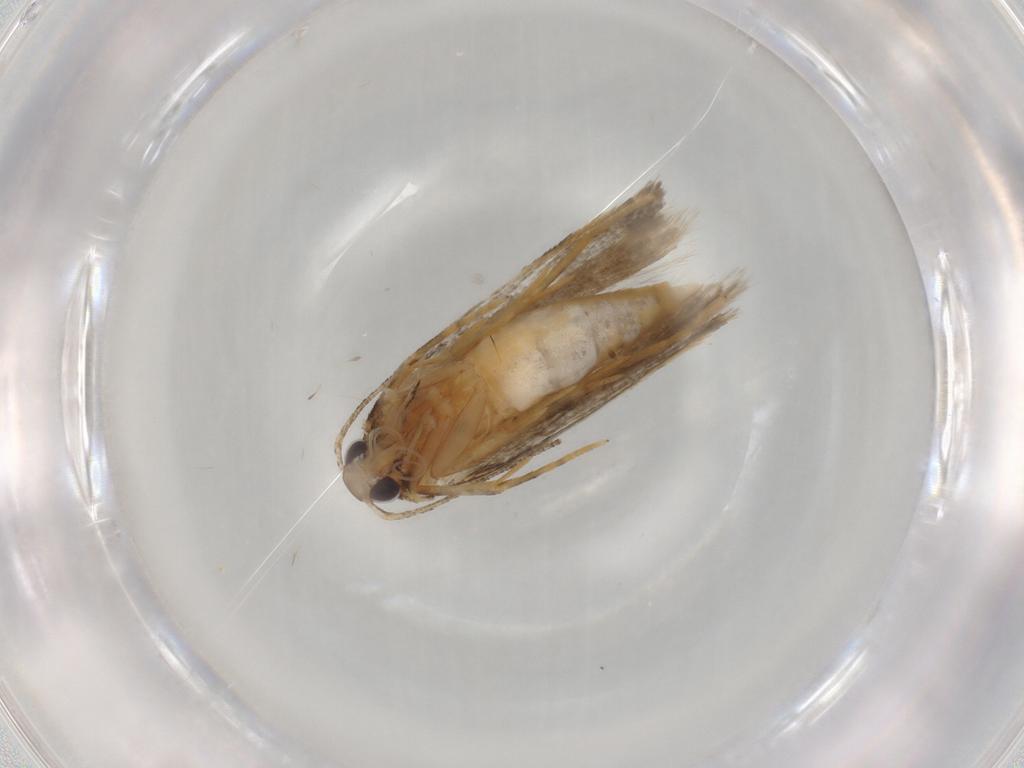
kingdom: Animalia
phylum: Arthropoda
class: Insecta
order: Lepidoptera
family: Autostichidae
